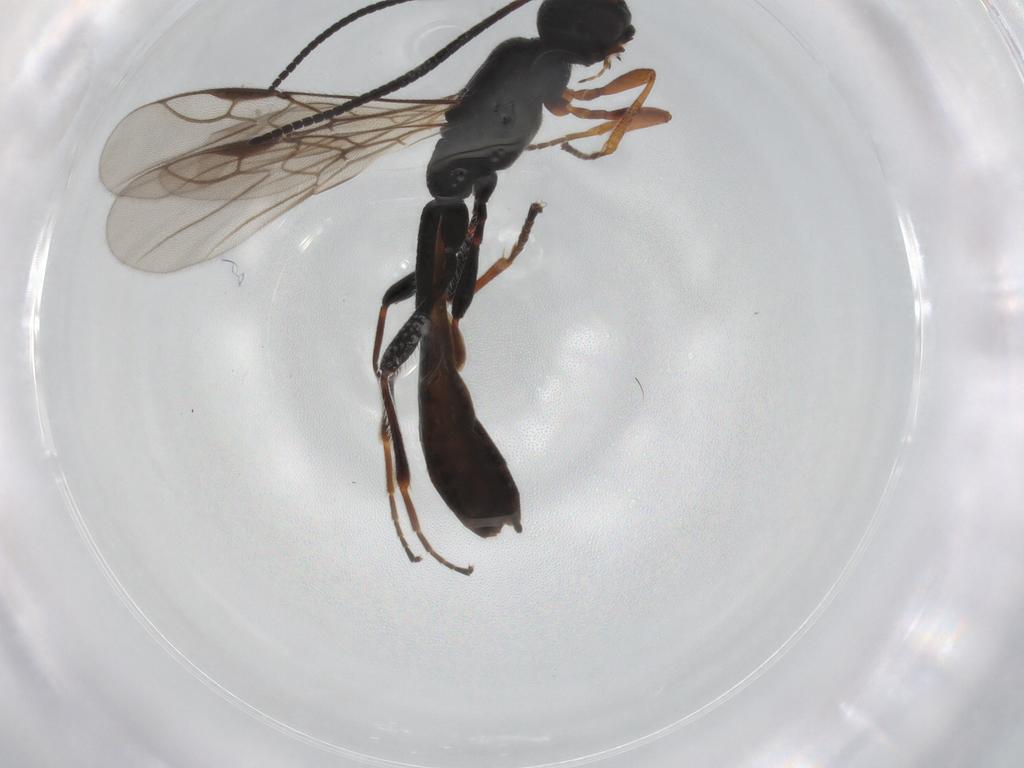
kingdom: Animalia
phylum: Arthropoda
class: Insecta
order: Hymenoptera
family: Braconidae
